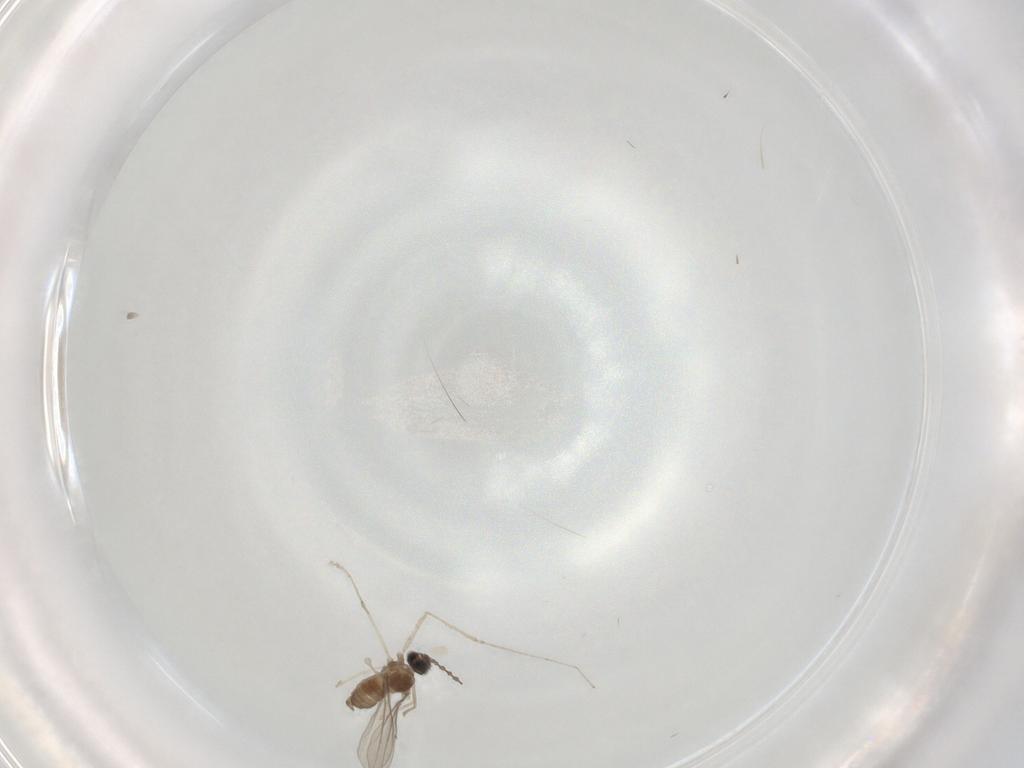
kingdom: Animalia
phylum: Arthropoda
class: Insecta
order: Diptera
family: Cecidomyiidae
